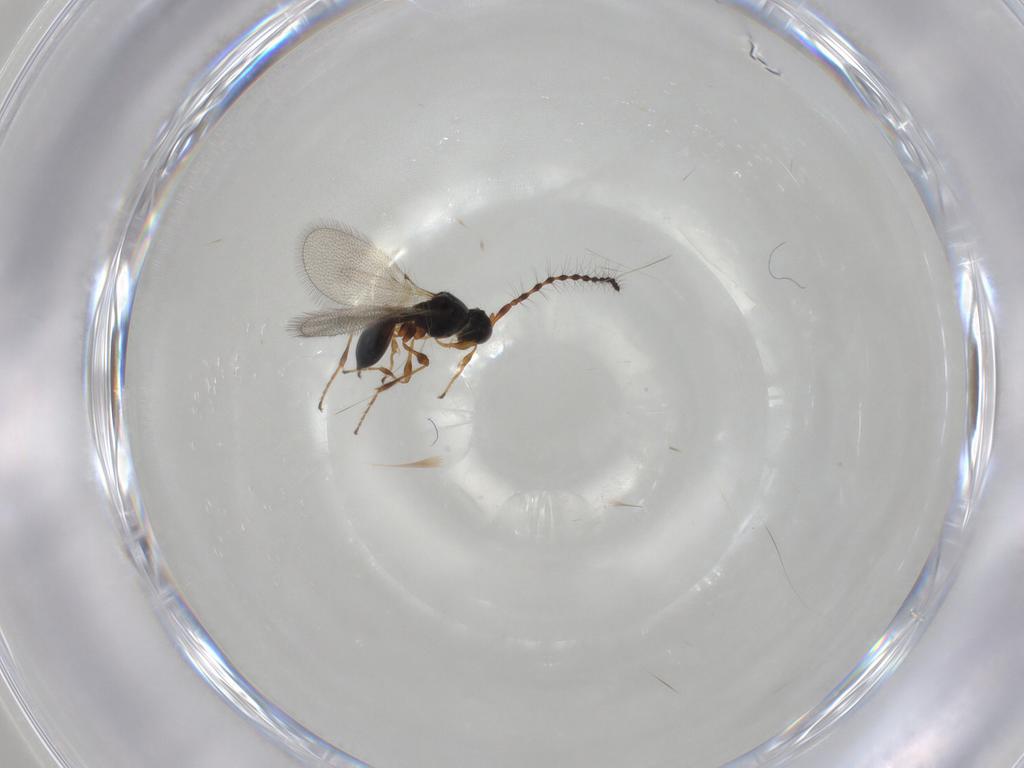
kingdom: Animalia
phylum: Arthropoda
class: Insecta
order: Hymenoptera
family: Diapriidae
